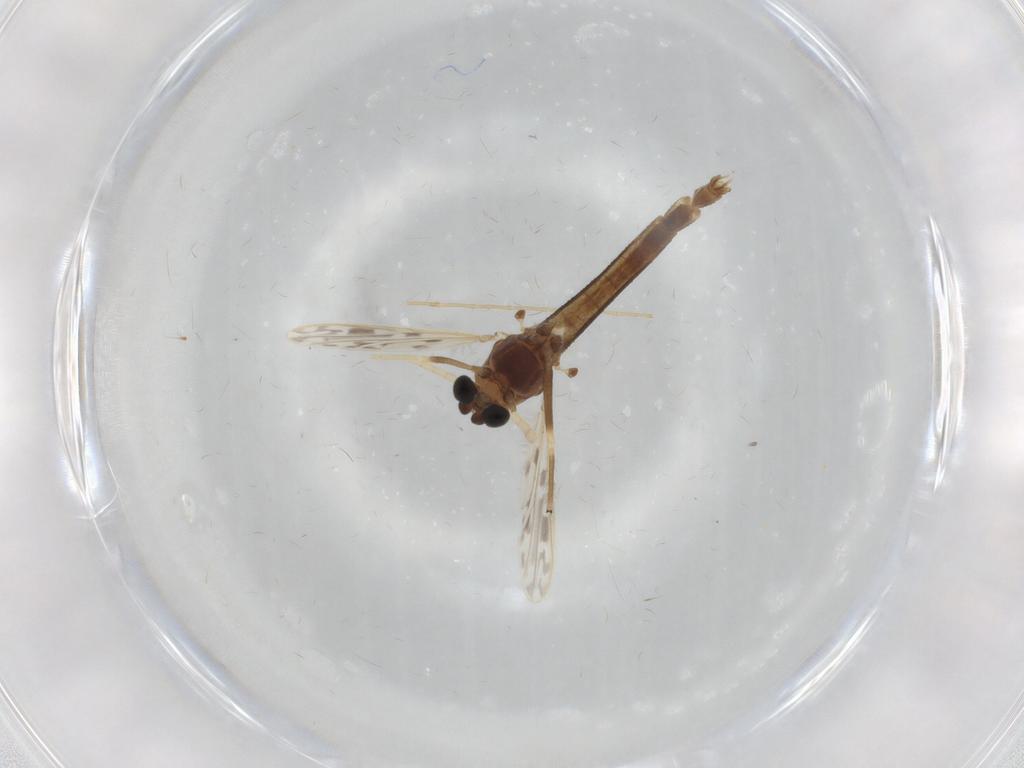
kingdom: Animalia
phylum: Arthropoda
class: Insecta
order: Diptera
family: Chironomidae
